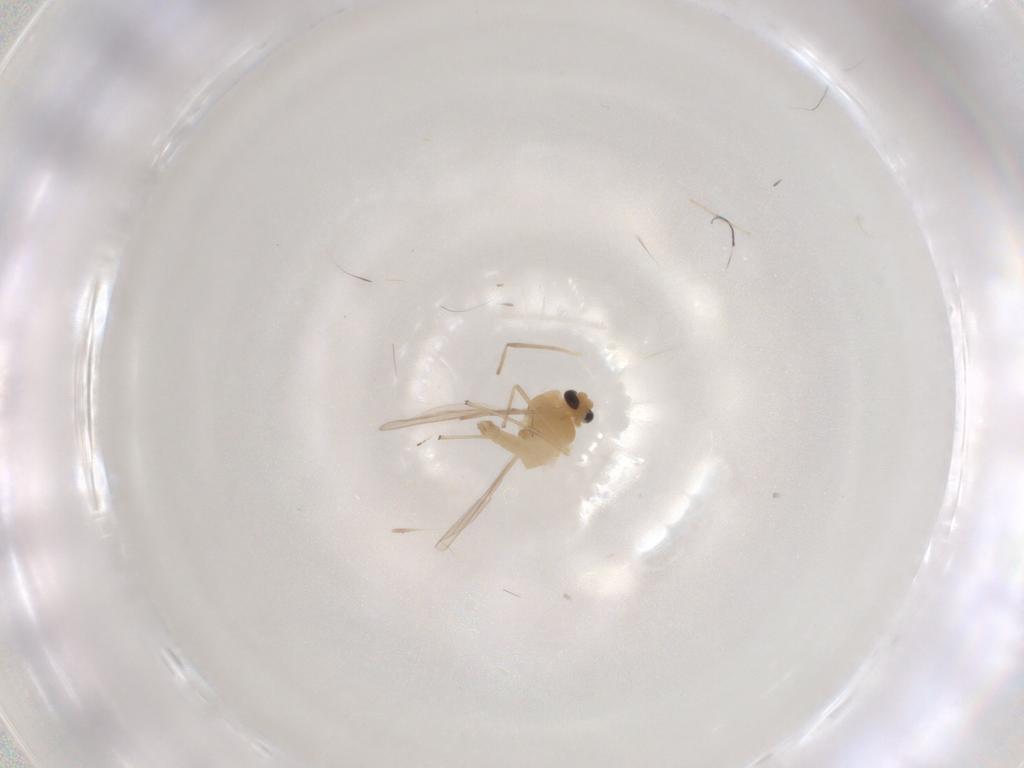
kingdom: Animalia
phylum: Arthropoda
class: Insecta
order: Diptera
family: Chironomidae
